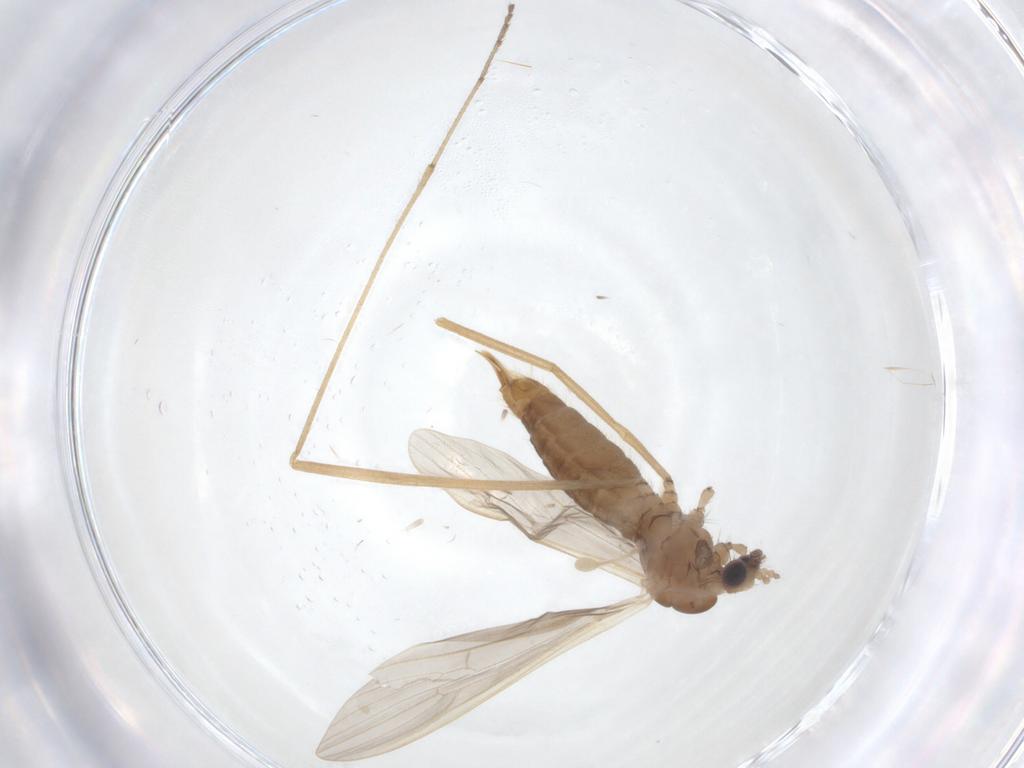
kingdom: Animalia
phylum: Arthropoda
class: Insecta
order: Diptera
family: Limoniidae
